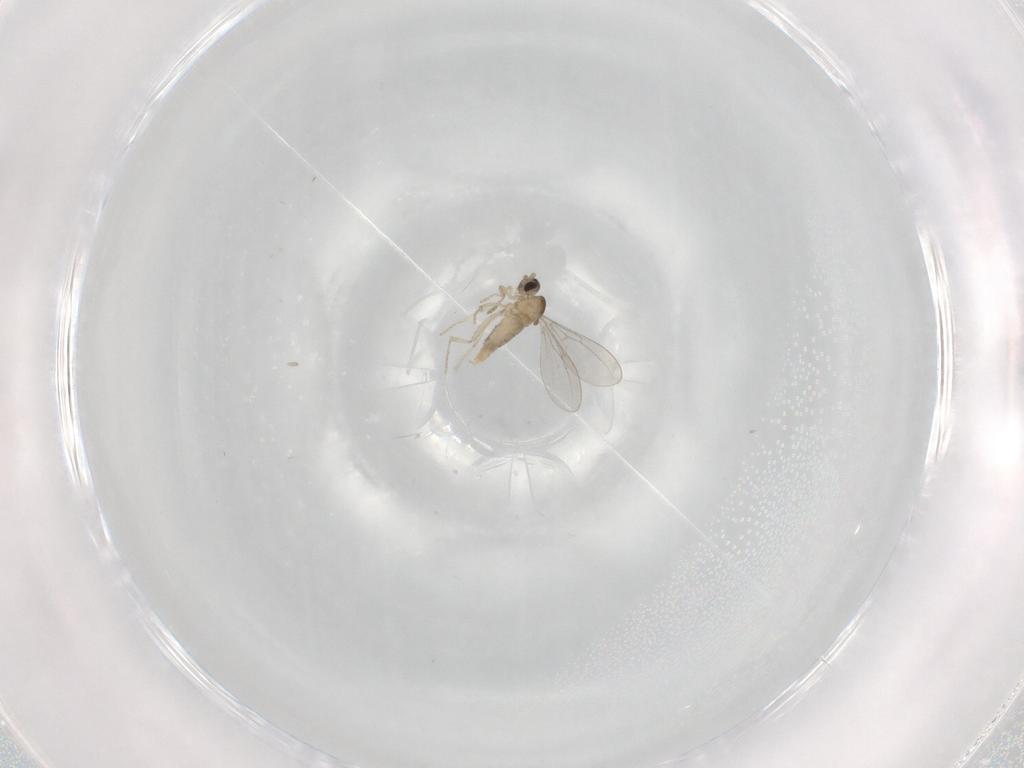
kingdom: Animalia
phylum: Arthropoda
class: Insecta
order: Diptera
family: Cecidomyiidae
